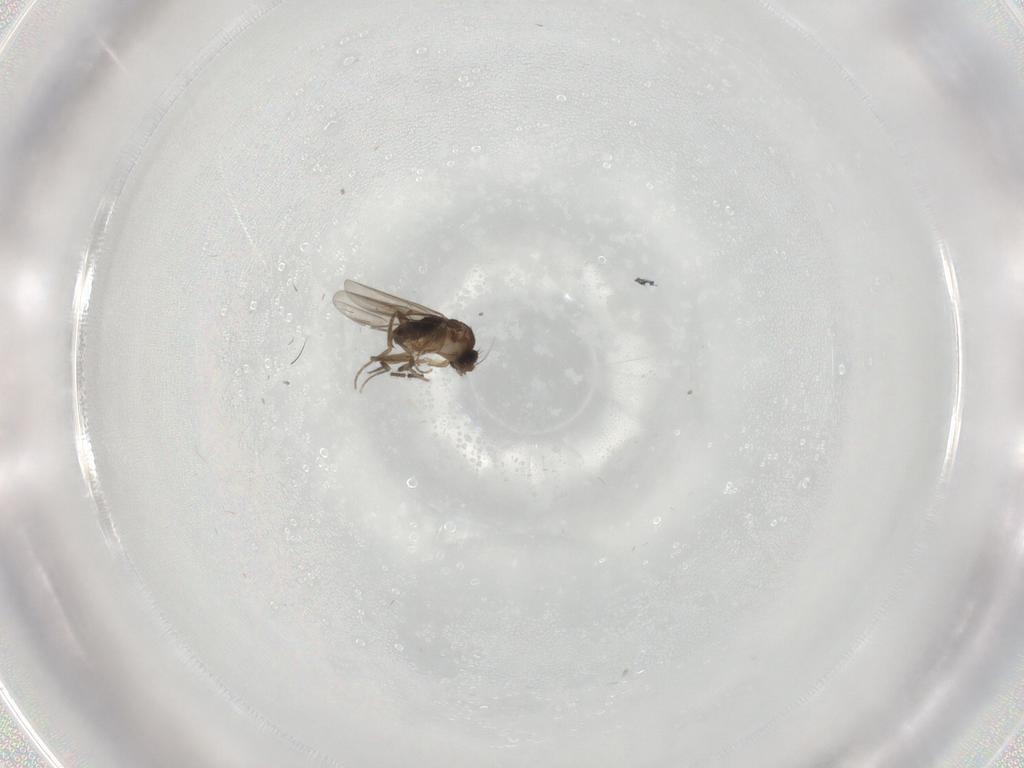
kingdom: Animalia
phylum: Arthropoda
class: Insecta
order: Diptera
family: Phoridae
